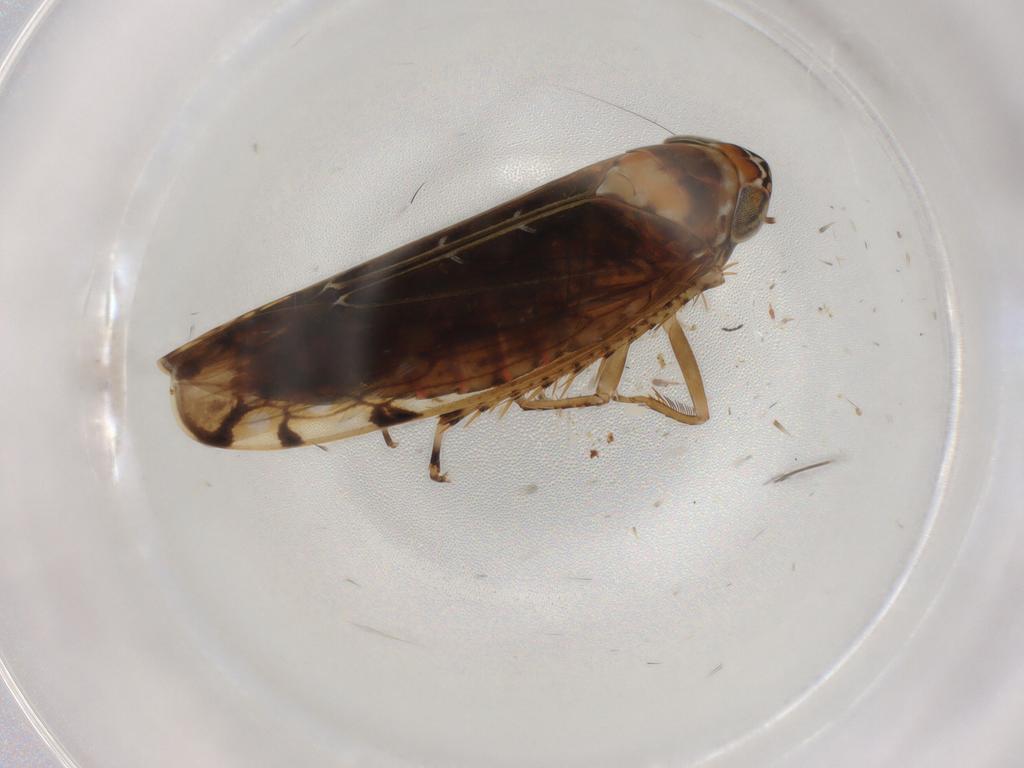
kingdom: Animalia
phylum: Arthropoda
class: Insecta
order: Hemiptera
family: Cicadellidae
